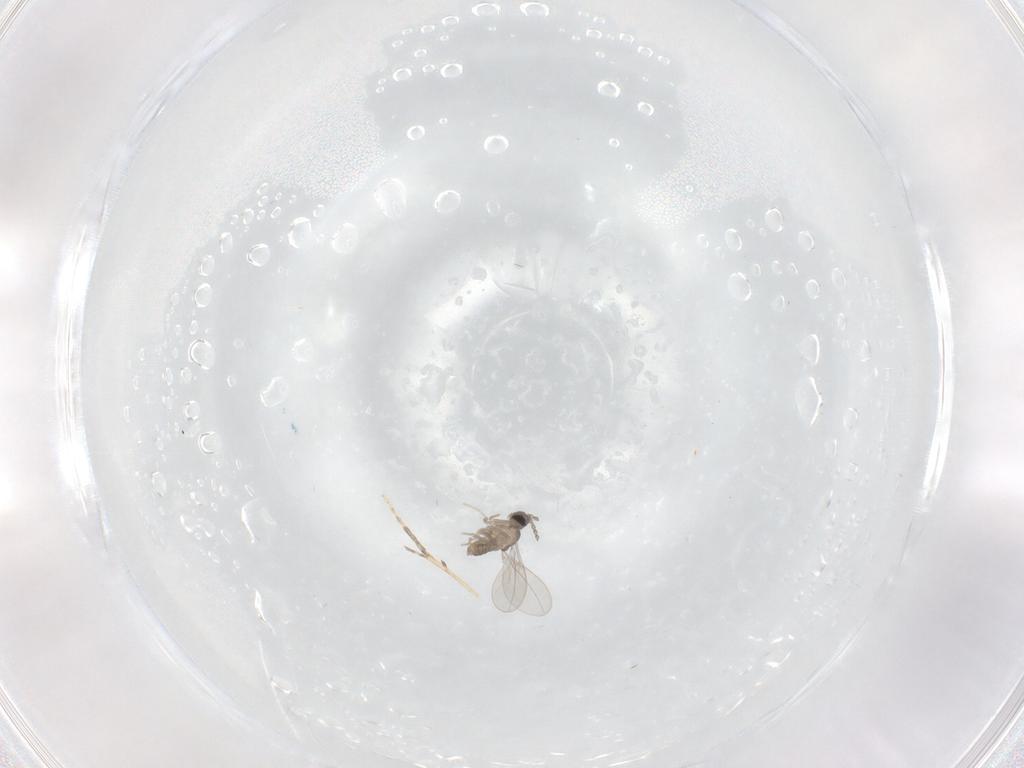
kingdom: Animalia
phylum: Arthropoda
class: Insecta
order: Diptera
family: Cecidomyiidae
